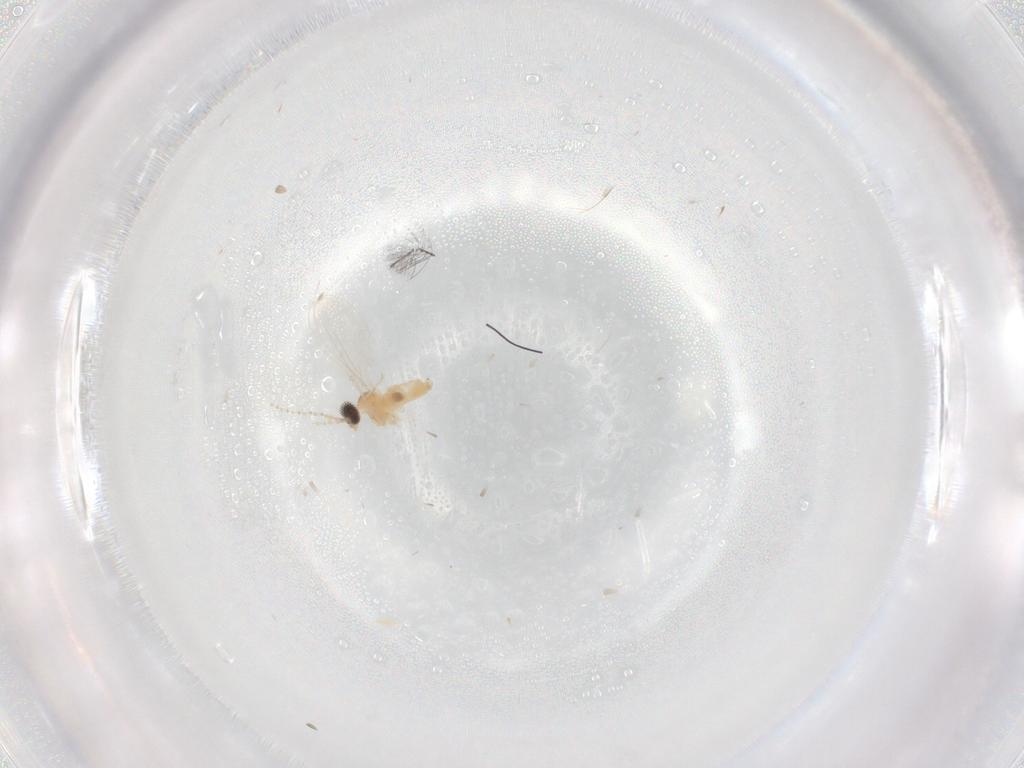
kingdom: Animalia
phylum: Arthropoda
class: Insecta
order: Diptera
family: Cecidomyiidae
